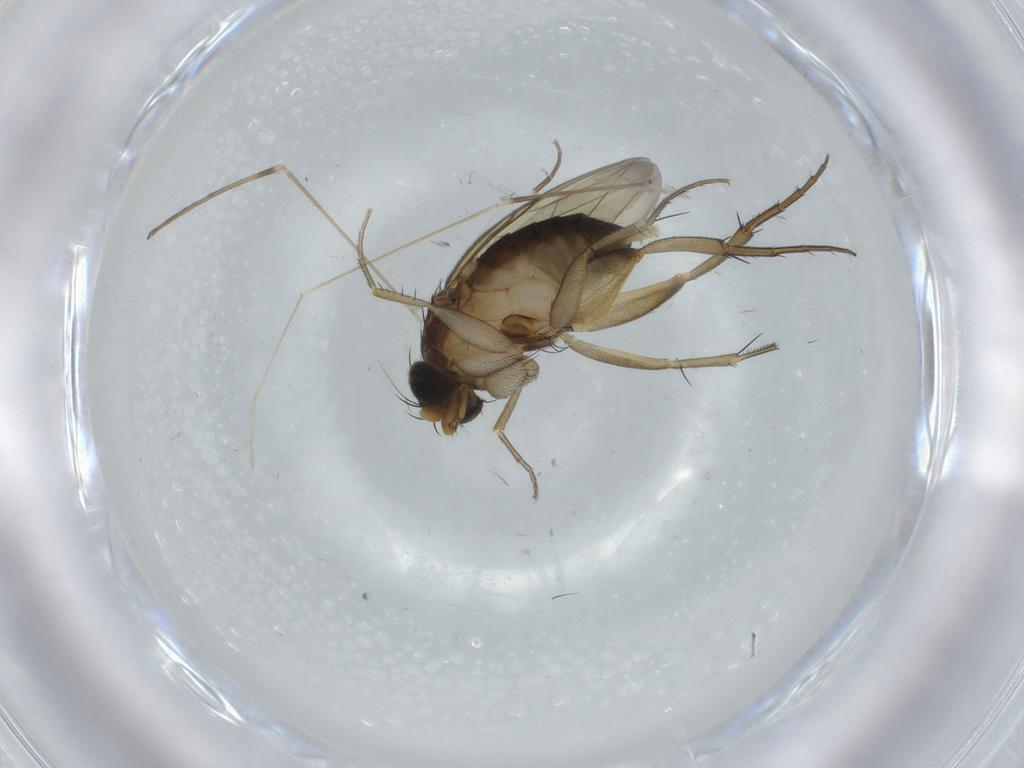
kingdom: Animalia
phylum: Arthropoda
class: Insecta
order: Diptera
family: Phoridae
